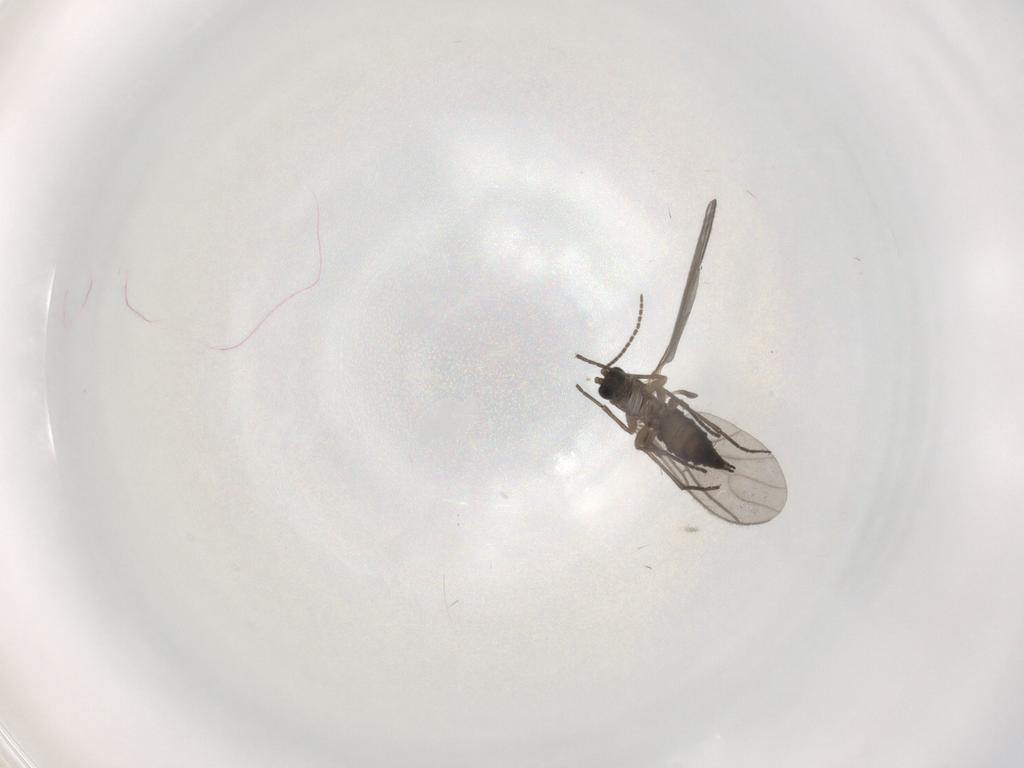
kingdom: Animalia
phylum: Arthropoda
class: Insecta
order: Diptera
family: Sciaridae
